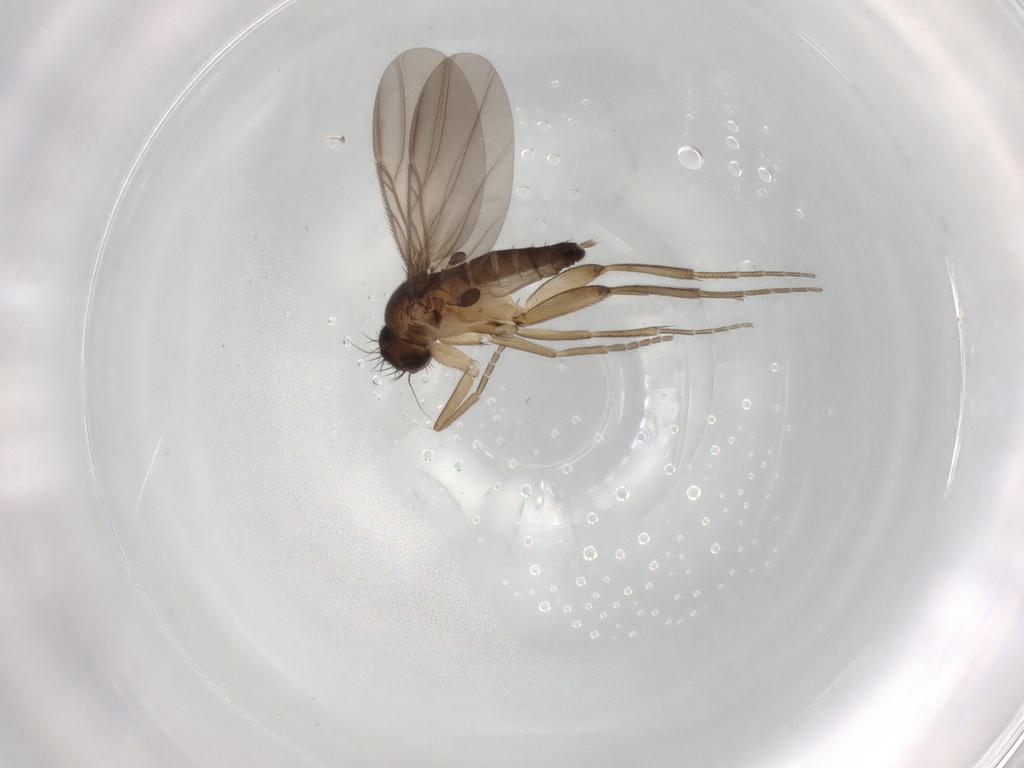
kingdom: Animalia
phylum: Arthropoda
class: Insecta
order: Diptera
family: Phoridae
